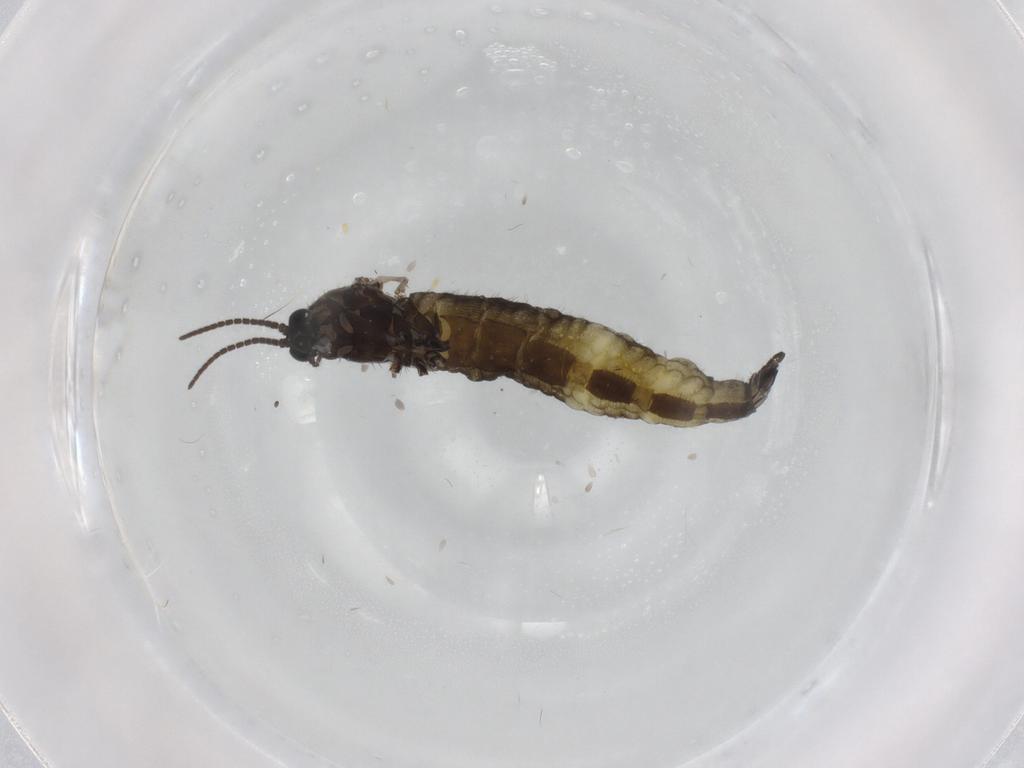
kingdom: Animalia
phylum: Arthropoda
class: Insecta
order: Diptera
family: Sciaridae
